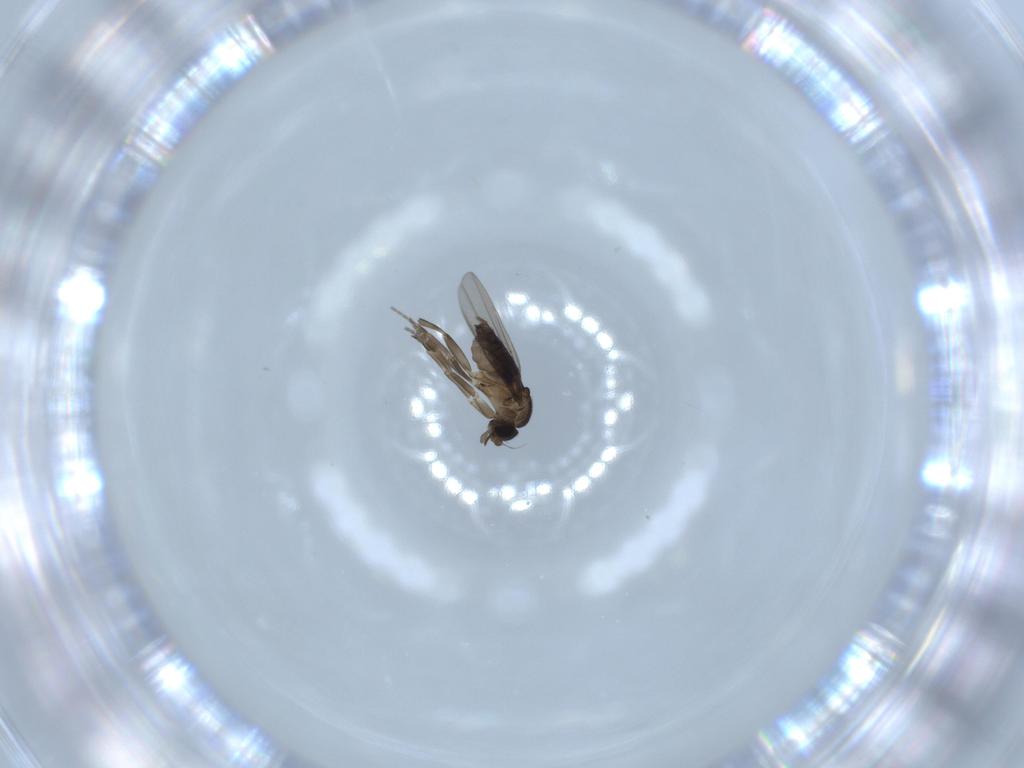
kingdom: Animalia
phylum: Arthropoda
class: Insecta
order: Diptera
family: Phoridae
